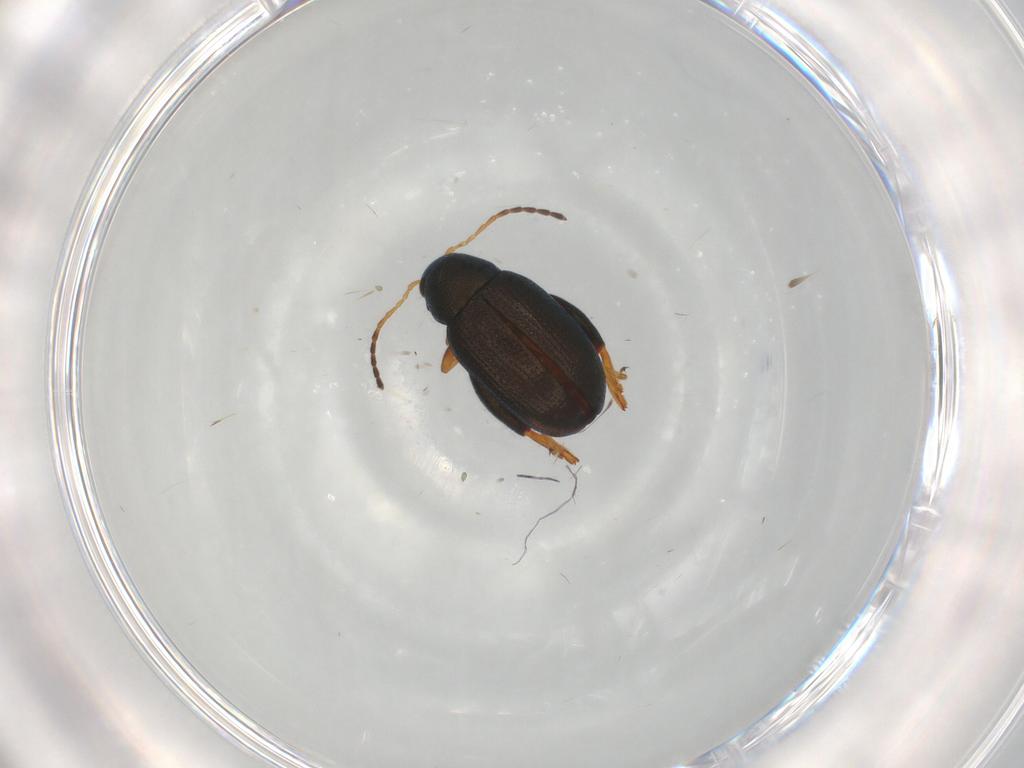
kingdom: Animalia
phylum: Arthropoda
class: Insecta
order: Coleoptera
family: Chrysomelidae
